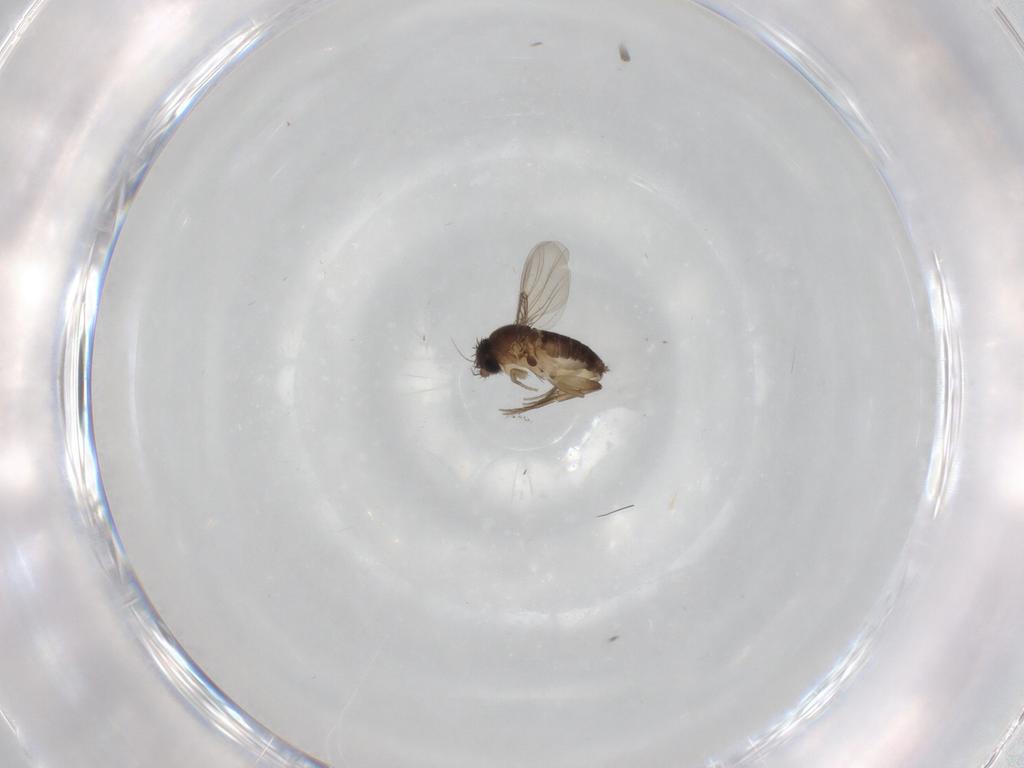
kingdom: Animalia
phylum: Arthropoda
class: Insecta
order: Diptera
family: Phoridae
